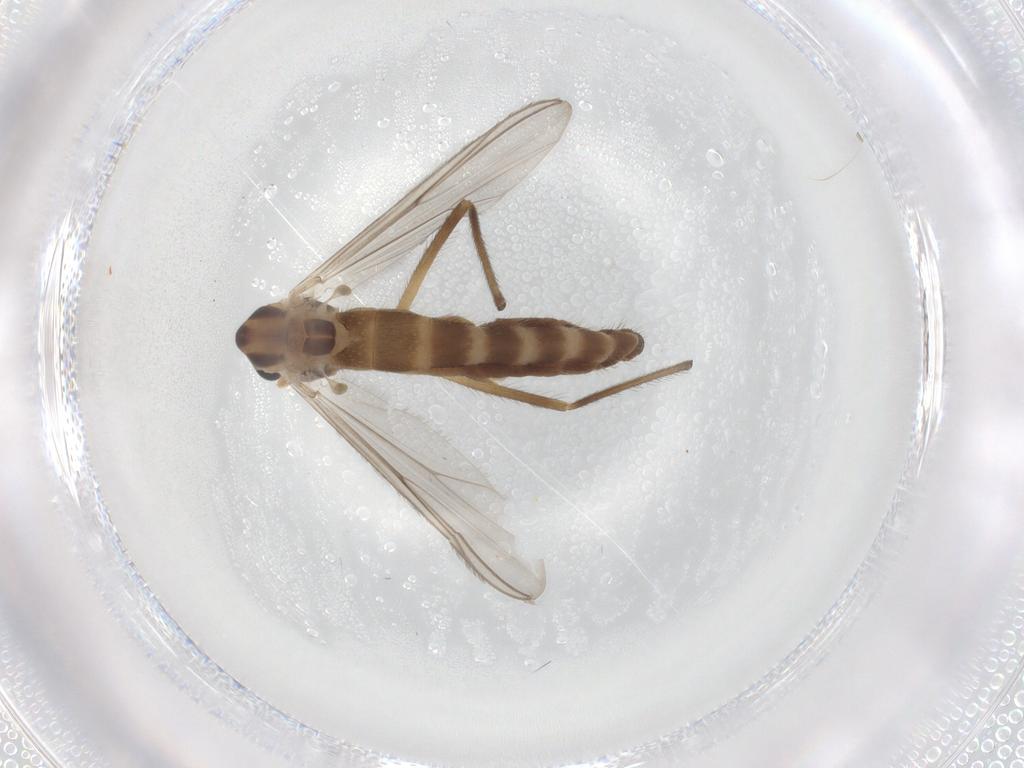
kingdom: Animalia
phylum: Arthropoda
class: Insecta
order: Diptera
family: Chironomidae
